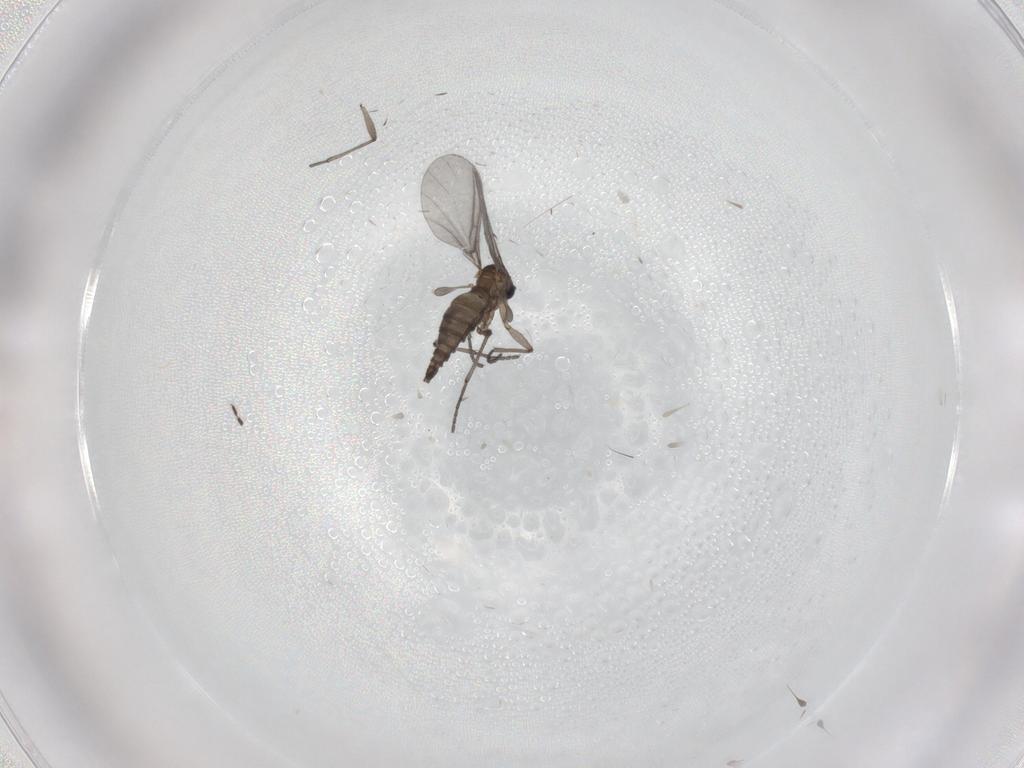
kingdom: Animalia
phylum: Arthropoda
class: Insecta
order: Diptera
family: Sciaridae
